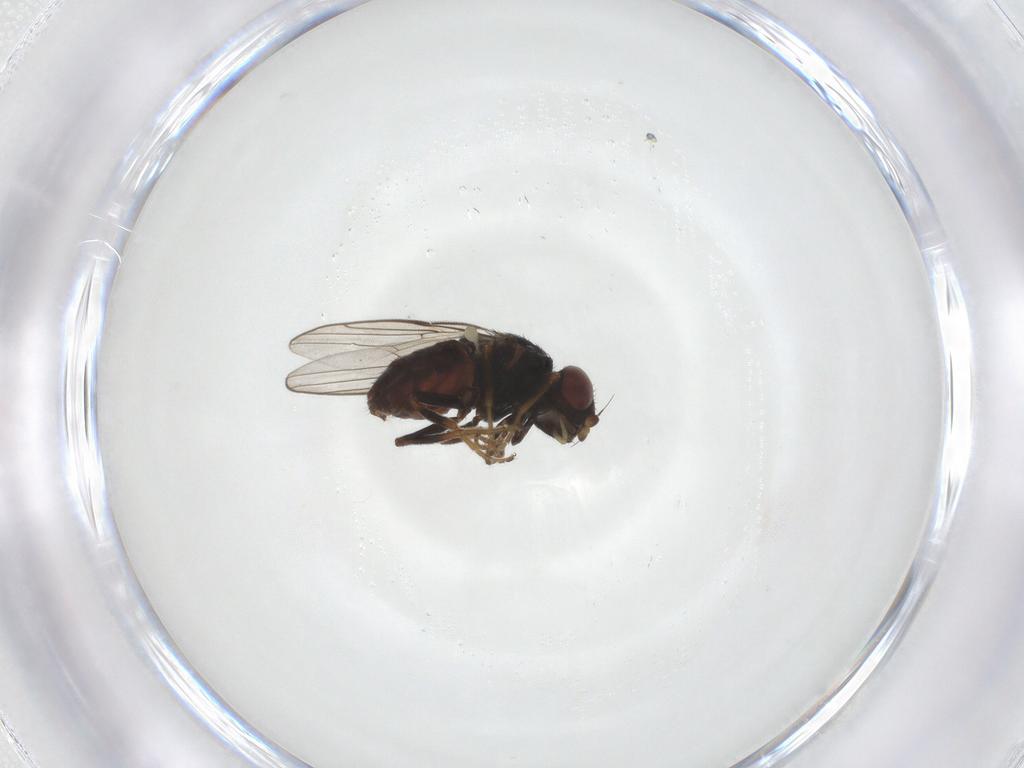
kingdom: Animalia
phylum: Arthropoda
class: Insecta
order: Diptera
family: Chloropidae
